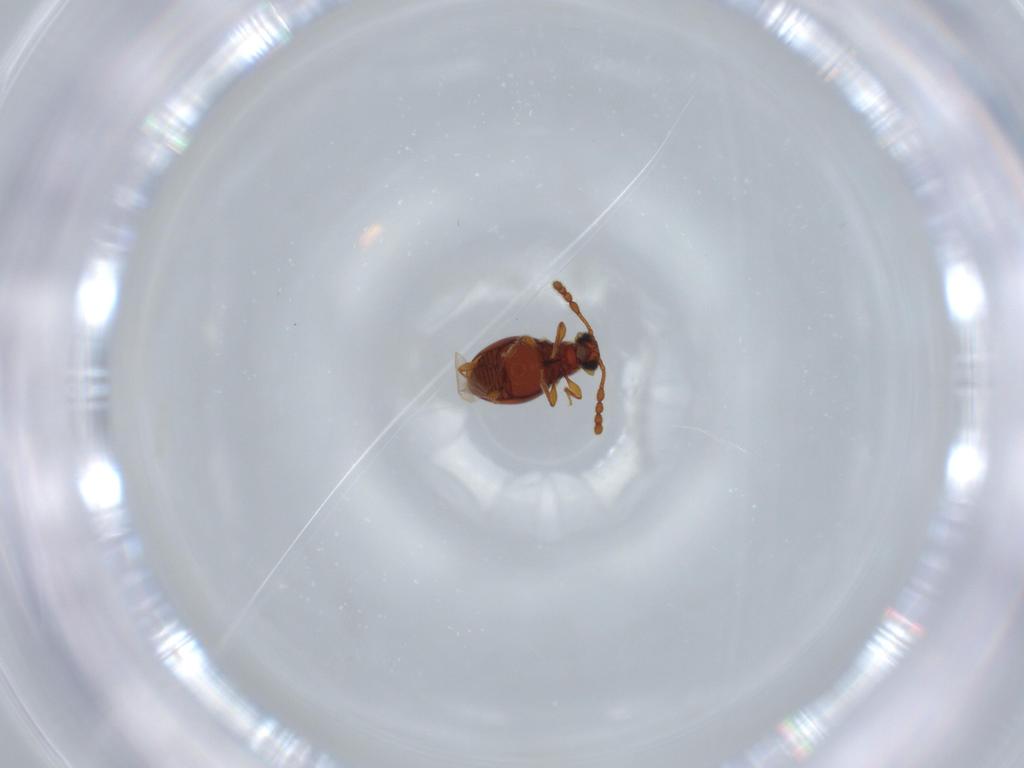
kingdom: Animalia
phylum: Arthropoda
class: Insecta
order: Coleoptera
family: Staphylinidae
